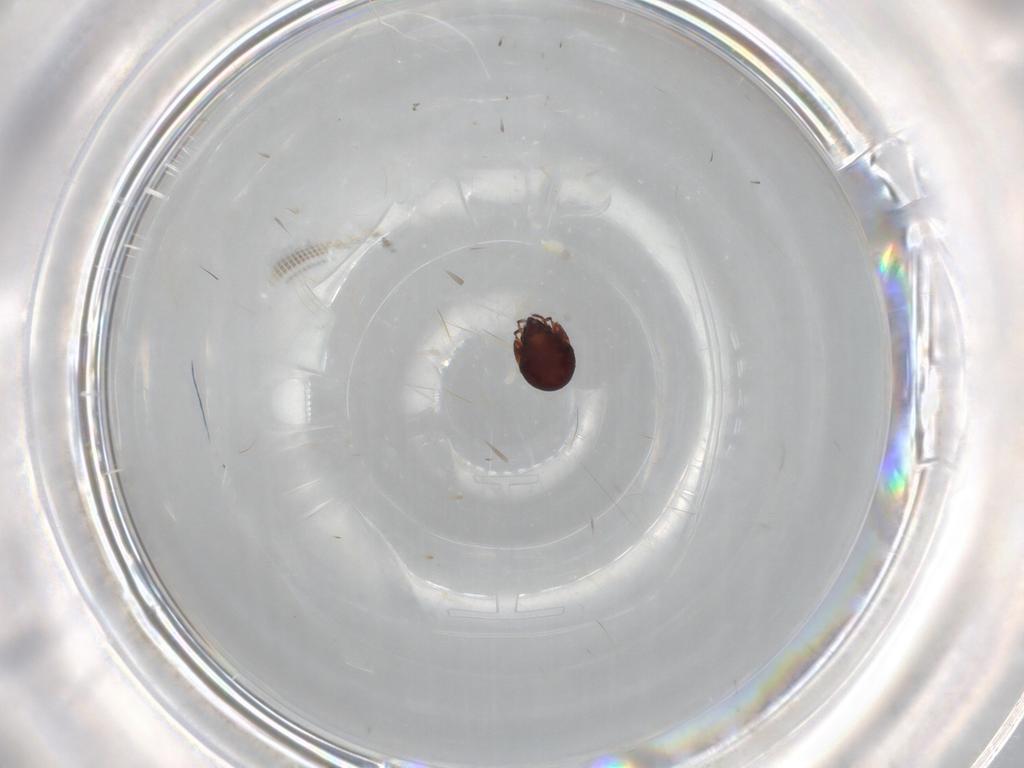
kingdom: Animalia
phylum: Arthropoda
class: Arachnida
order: Sarcoptiformes
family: Humerobatidae
